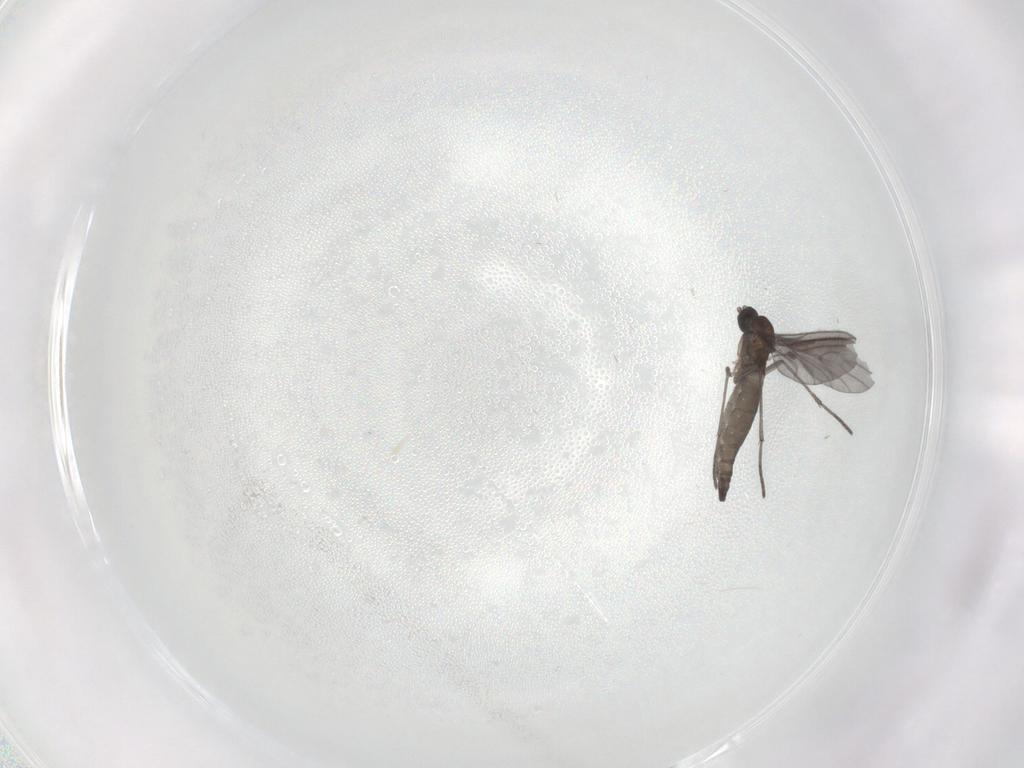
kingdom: Animalia
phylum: Arthropoda
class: Insecta
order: Diptera
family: Sciaridae
